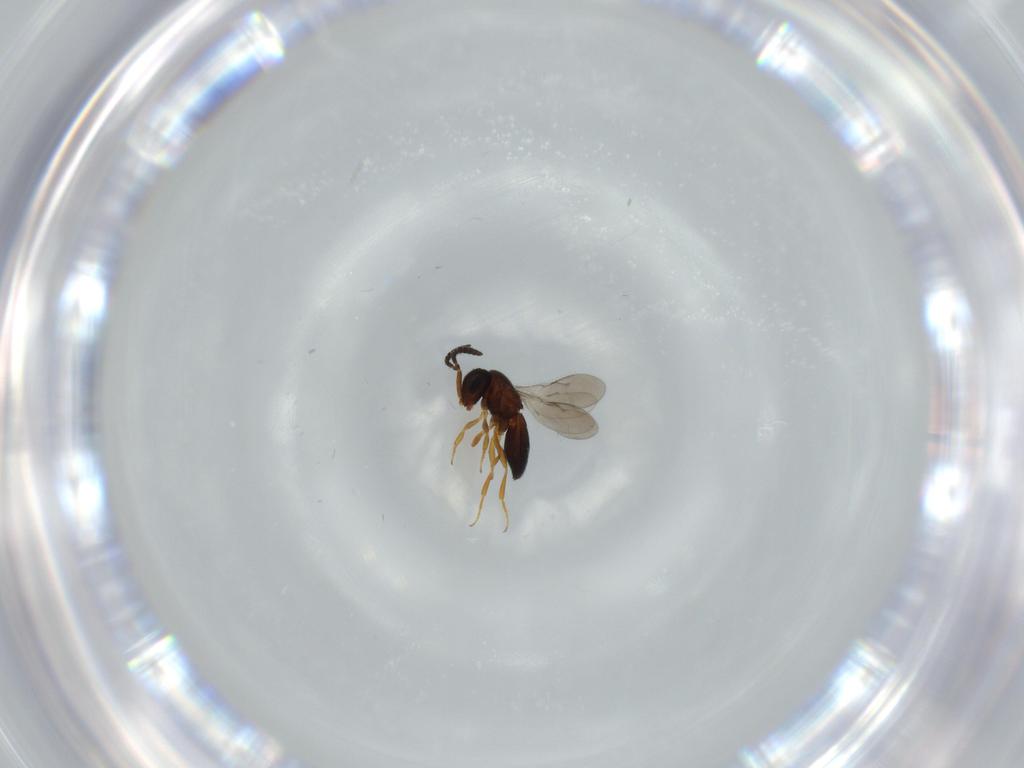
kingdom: Animalia
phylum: Arthropoda
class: Insecta
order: Hymenoptera
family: Scelionidae
